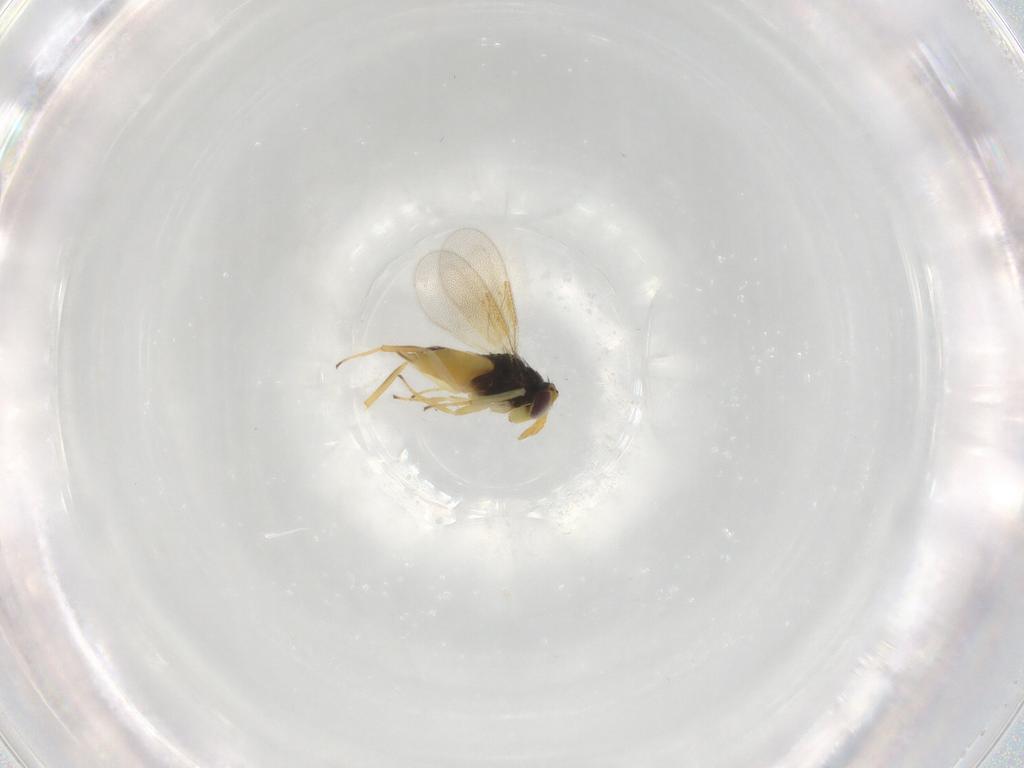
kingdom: Animalia
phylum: Arthropoda
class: Insecta
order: Hymenoptera
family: Aphelinidae
